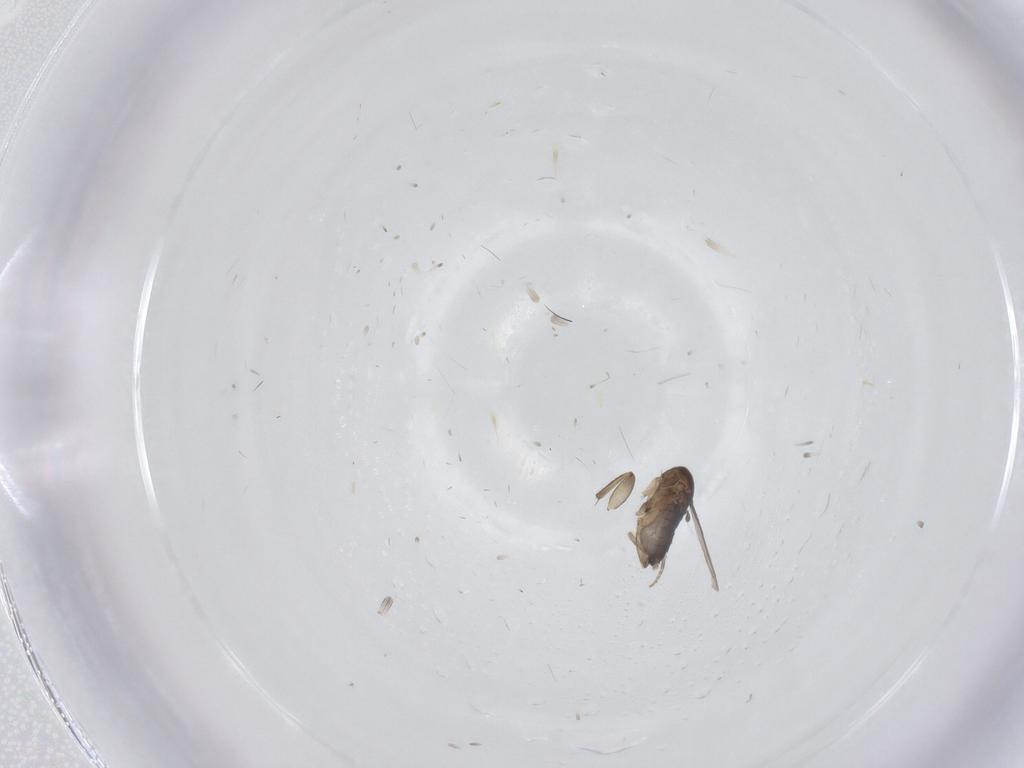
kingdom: Animalia
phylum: Arthropoda
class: Insecta
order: Diptera
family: Phoridae
